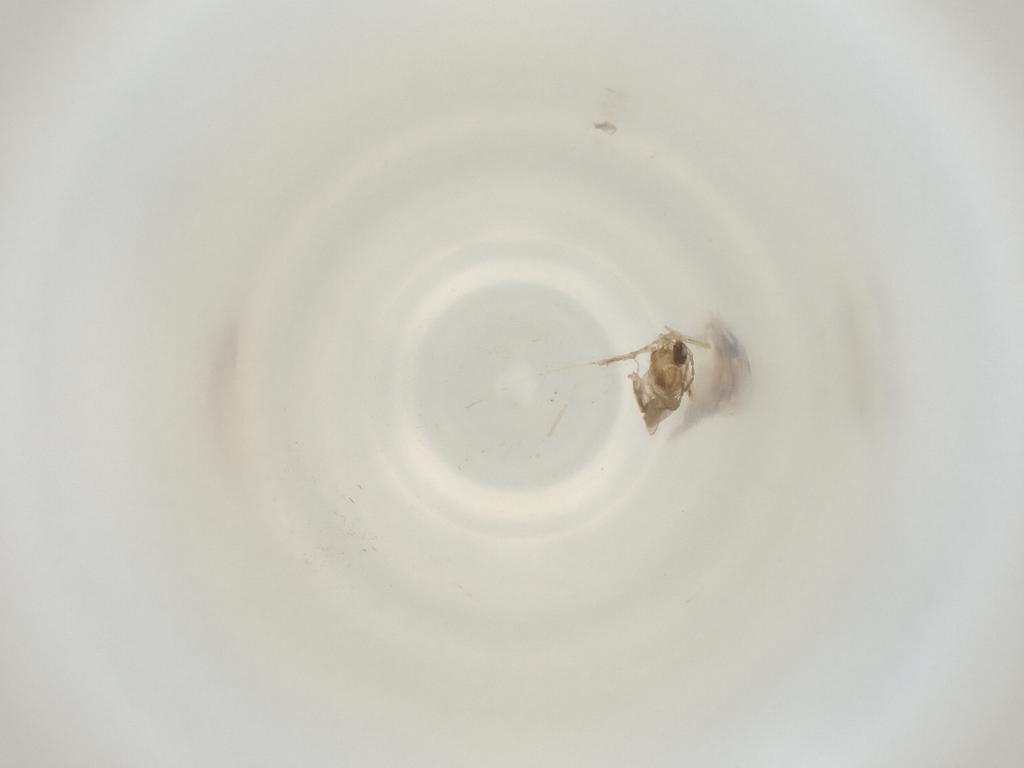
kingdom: Animalia
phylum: Arthropoda
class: Insecta
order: Diptera
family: Cecidomyiidae
